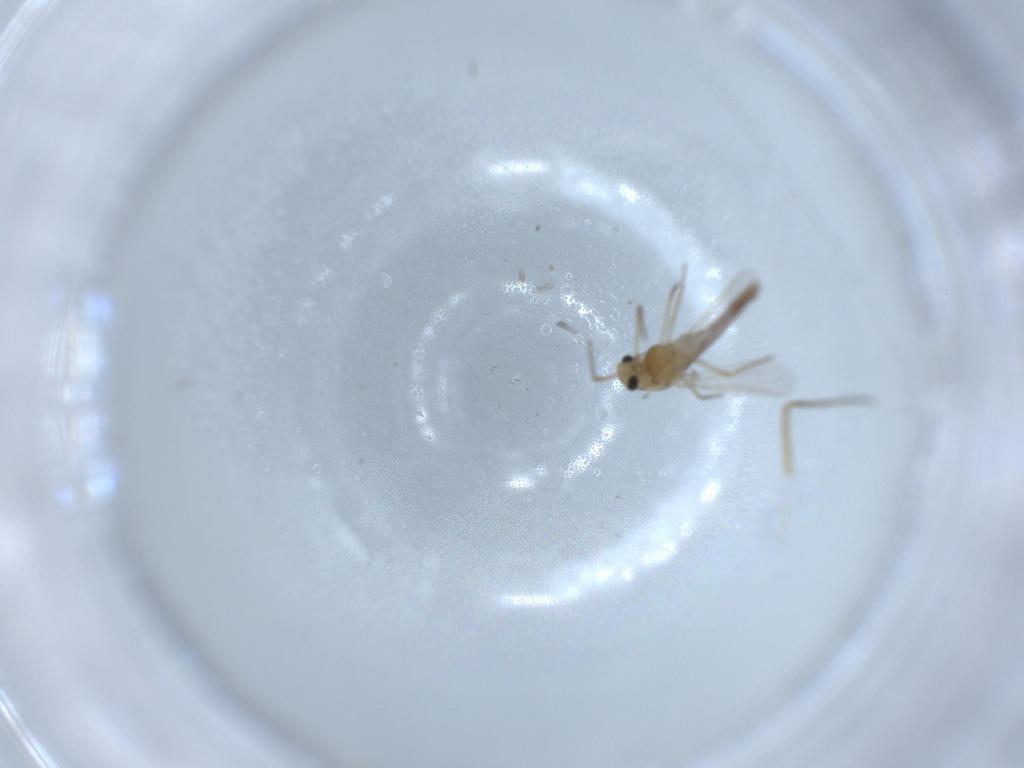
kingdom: Animalia
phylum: Arthropoda
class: Insecta
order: Diptera
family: Chironomidae
